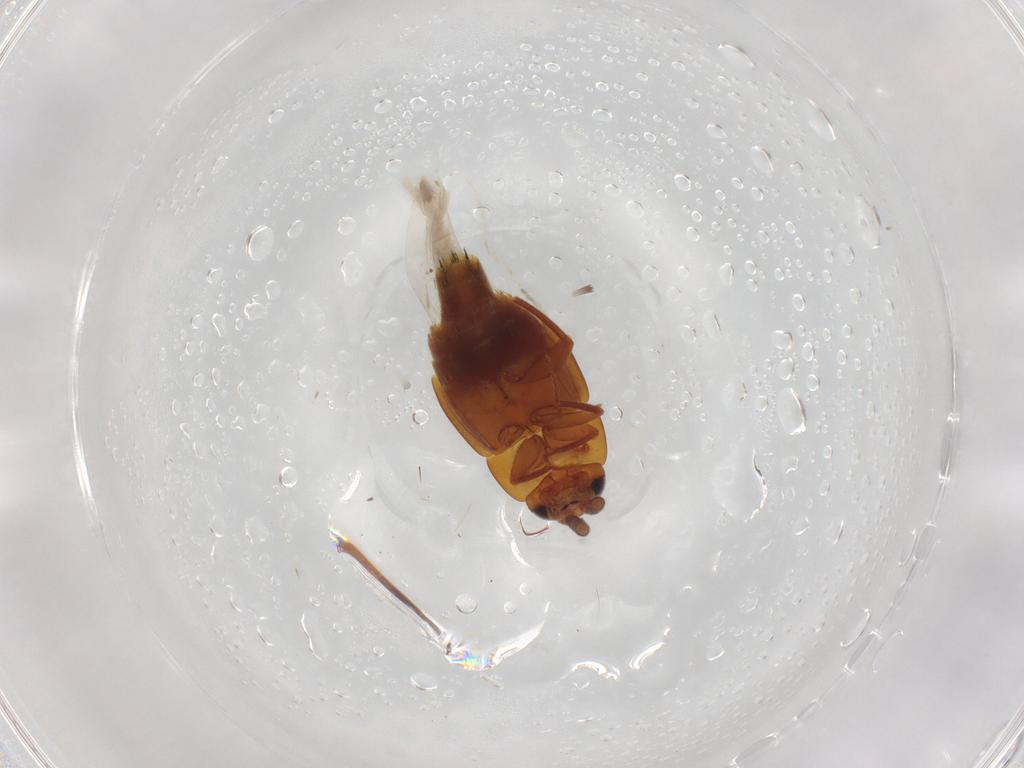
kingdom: Animalia
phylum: Arthropoda
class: Insecta
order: Coleoptera
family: Staphylinidae
